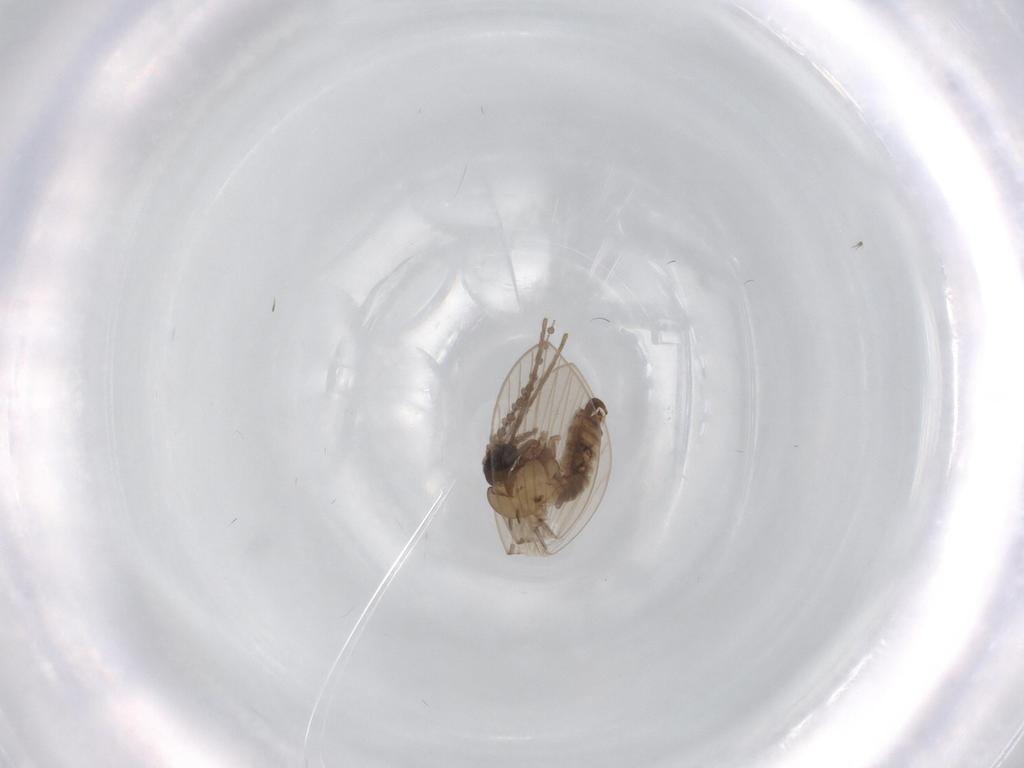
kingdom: Animalia
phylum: Arthropoda
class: Insecta
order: Diptera
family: Psychodidae
